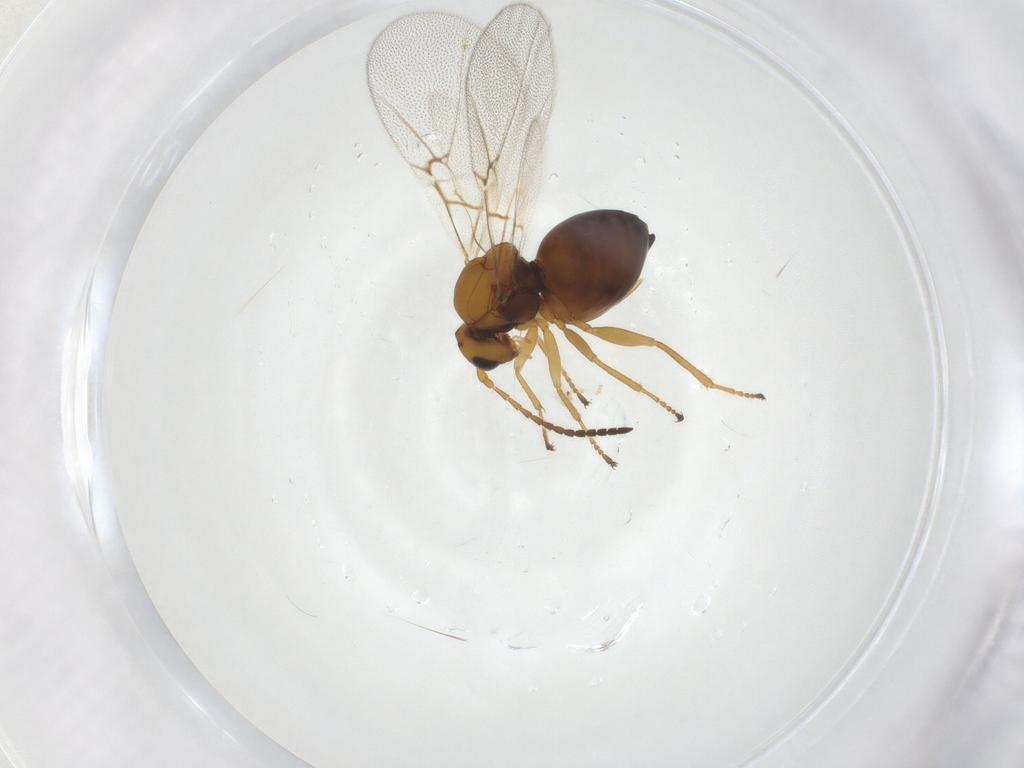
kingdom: Animalia
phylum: Arthropoda
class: Insecta
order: Hymenoptera
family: Cynipidae
